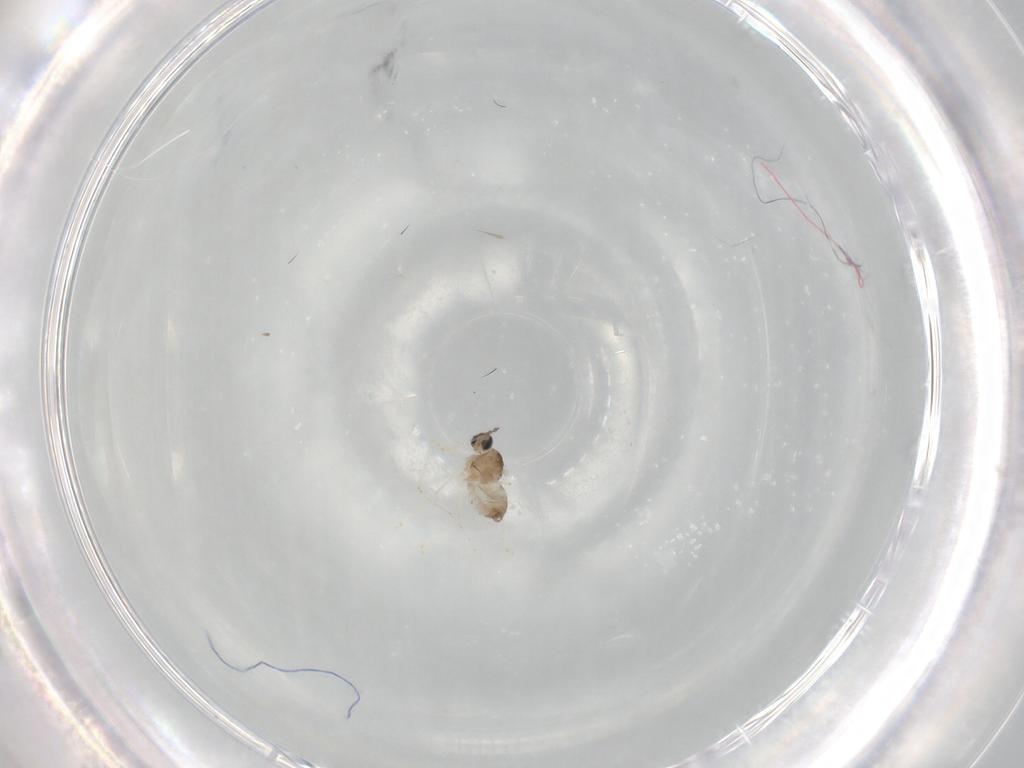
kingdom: Animalia
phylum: Arthropoda
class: Insecta
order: Diptera
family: Cecidomyiidae
